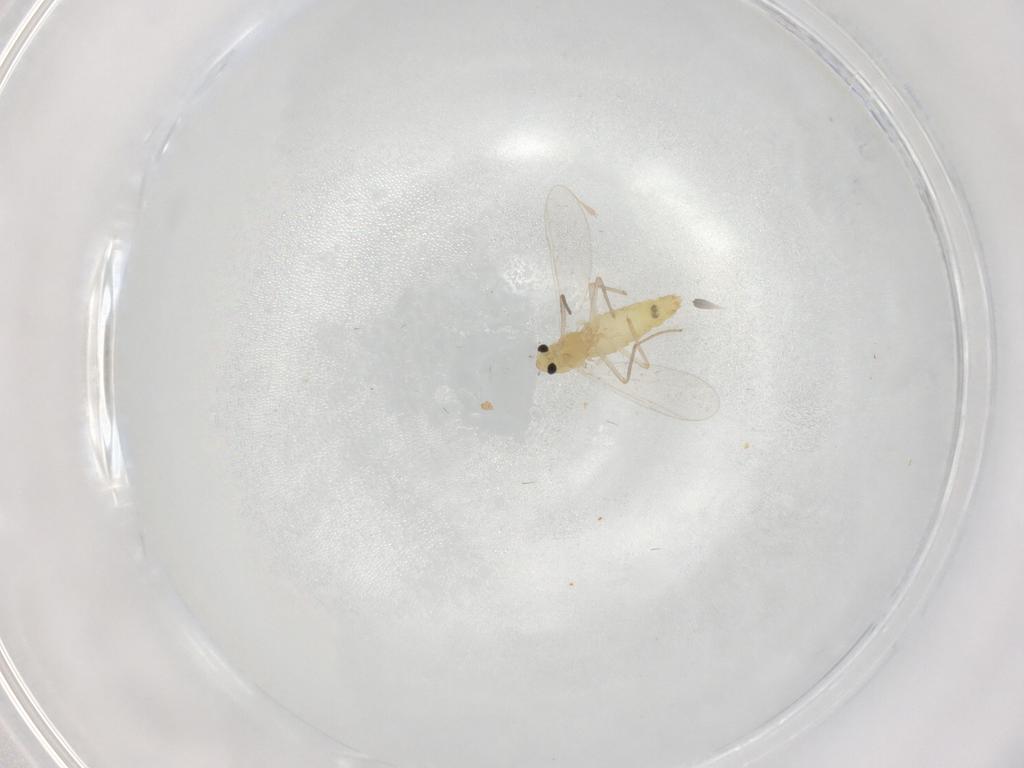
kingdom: Animalia
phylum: Arthropoda
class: Insecta
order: Diptera
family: Chironomidae
